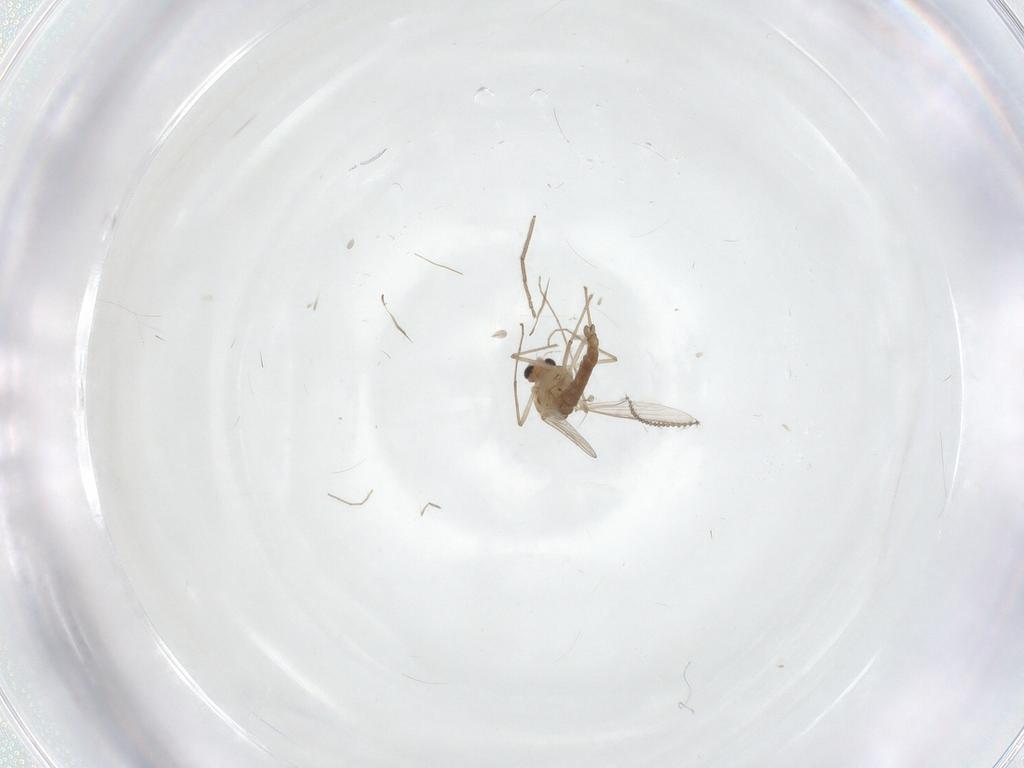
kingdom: Animalia
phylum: Arthropoda
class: Insecta
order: Diptera
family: Chironomidae
